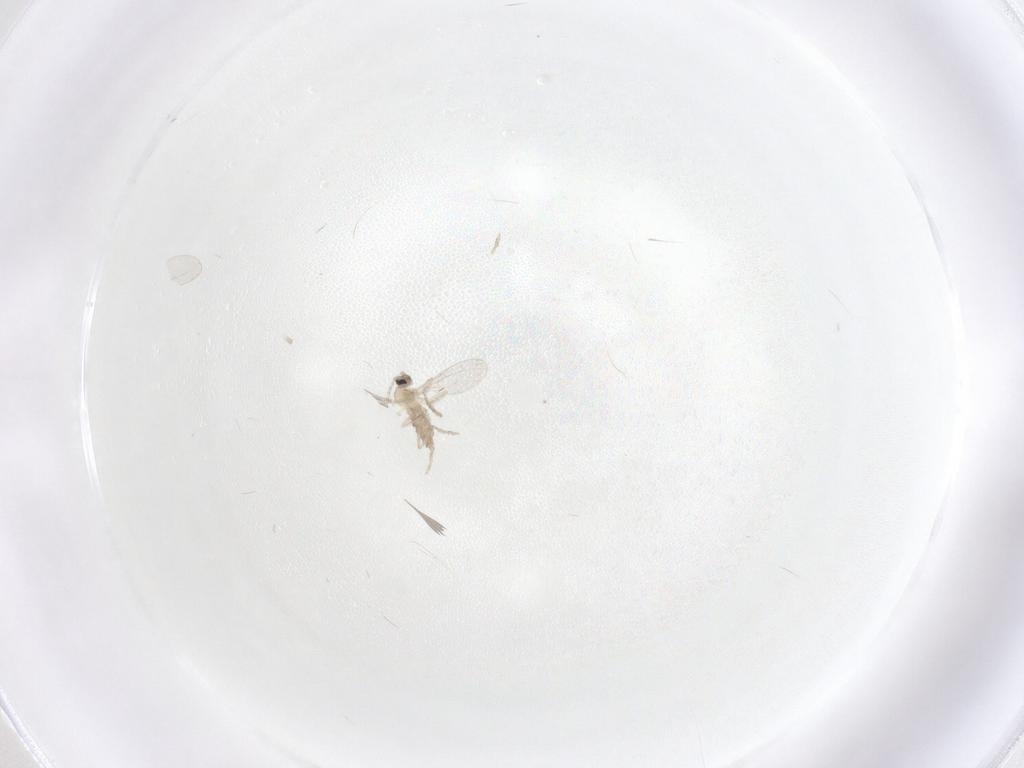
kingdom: Animalia
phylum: Arthropoda
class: Insecta
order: Diptera
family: Cecidomyiidae
